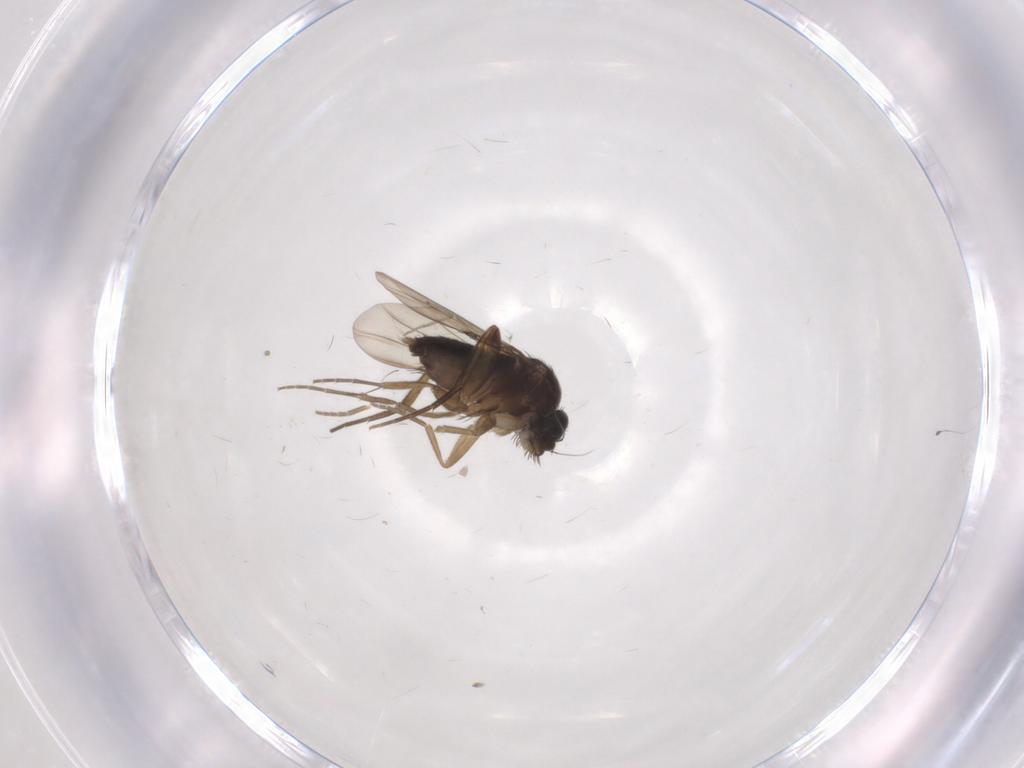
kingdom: Animalia
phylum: Arthropoda
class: Insecta
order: Diptera
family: Phoridae
